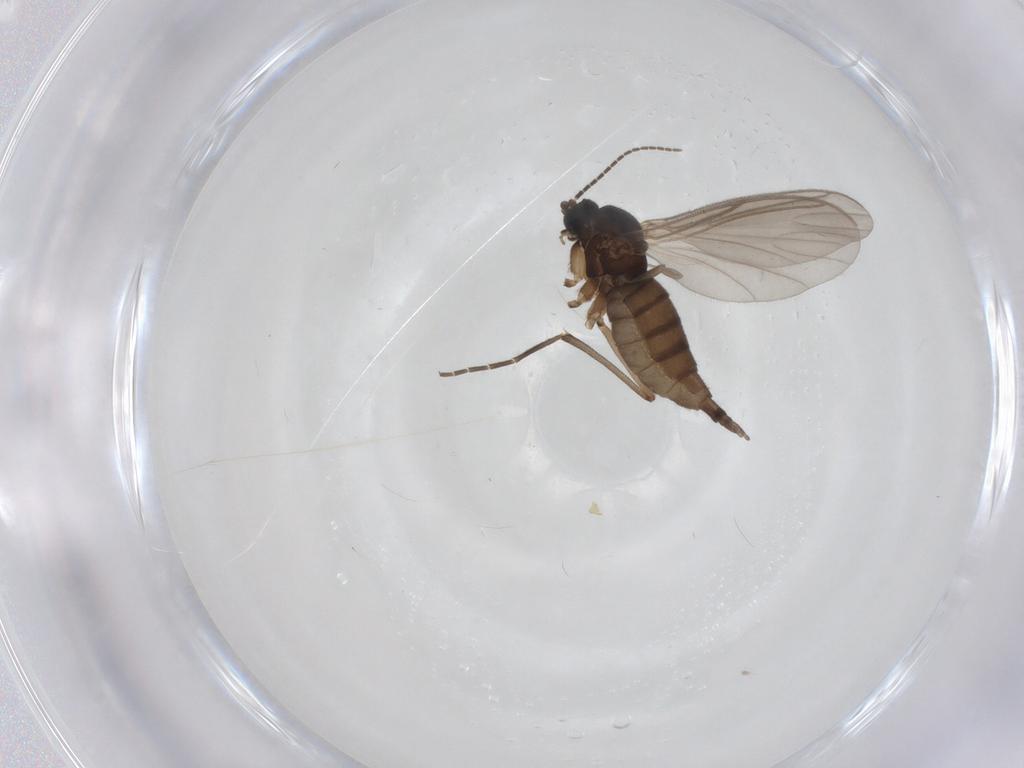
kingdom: Animalia
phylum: Arthropoda
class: Insecta
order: Diptera
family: Sciaridae
